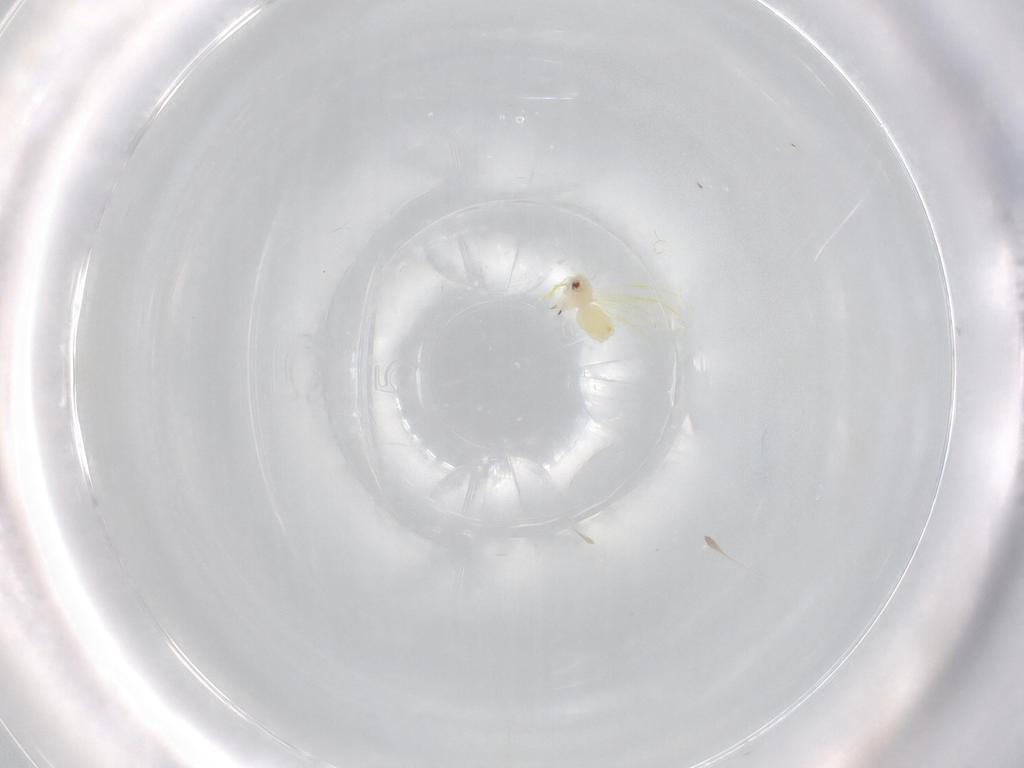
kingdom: Animalia
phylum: Arthropoda
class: Insecta
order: Hemiptera
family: Aleyrodidae
